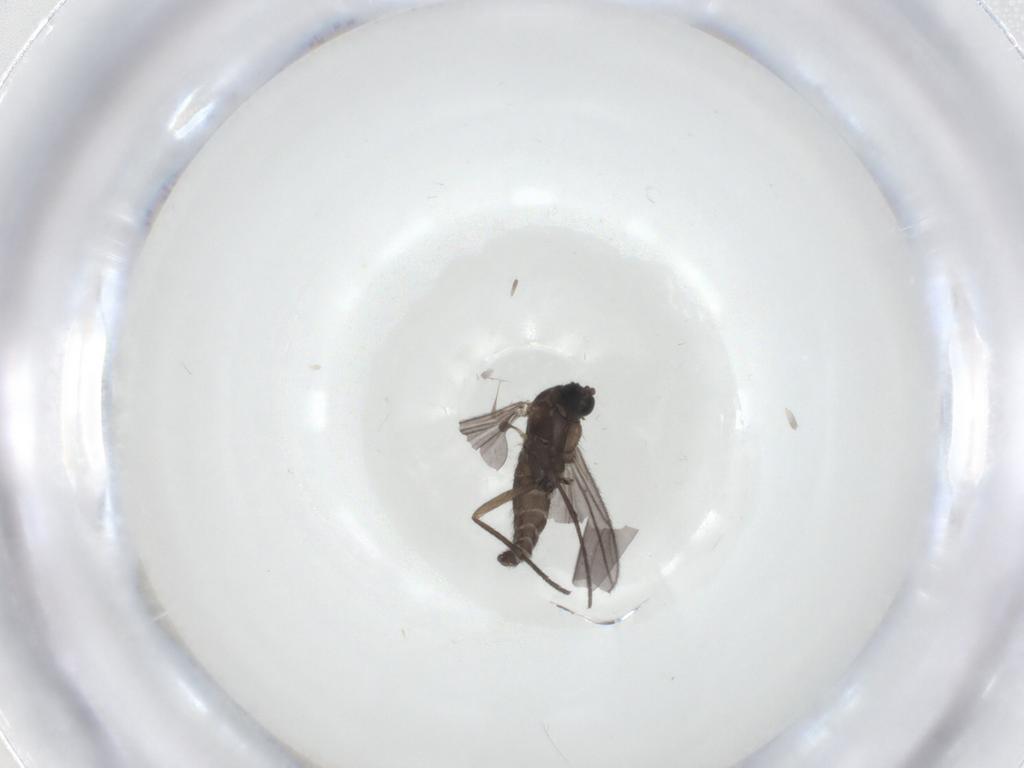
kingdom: Animalia
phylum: Arthropoda
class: Insecta
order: Diptera
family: Sciaridae
